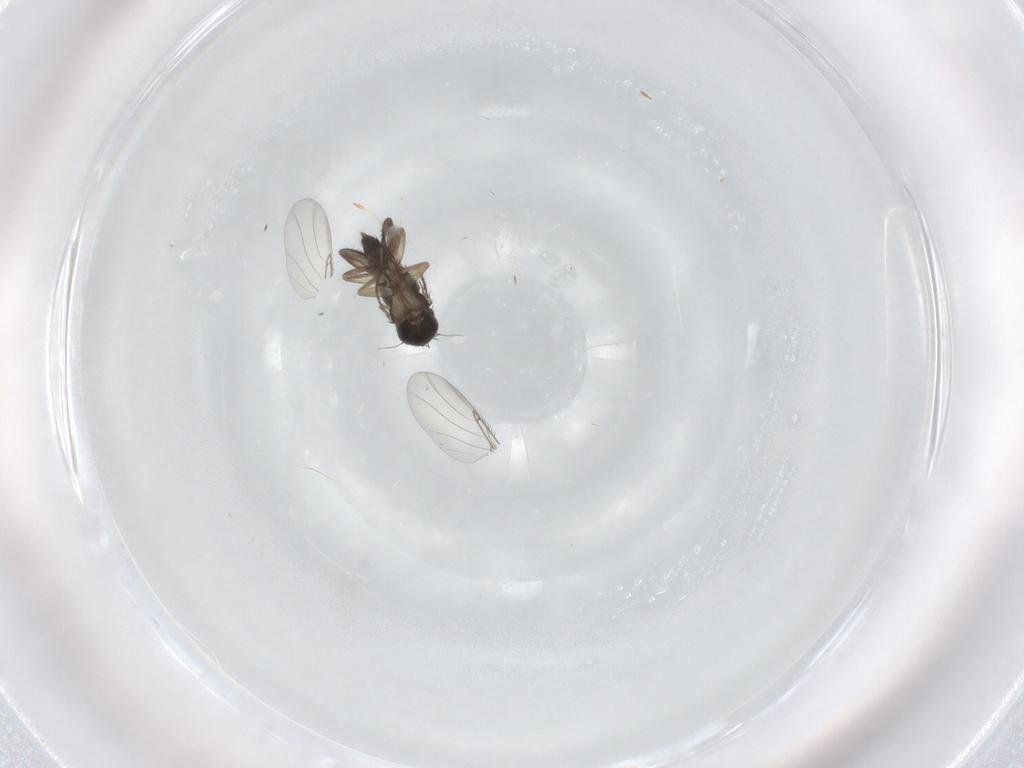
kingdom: Animalia
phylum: Arthropoda
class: Insecta
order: Diptera
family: Phoridae
